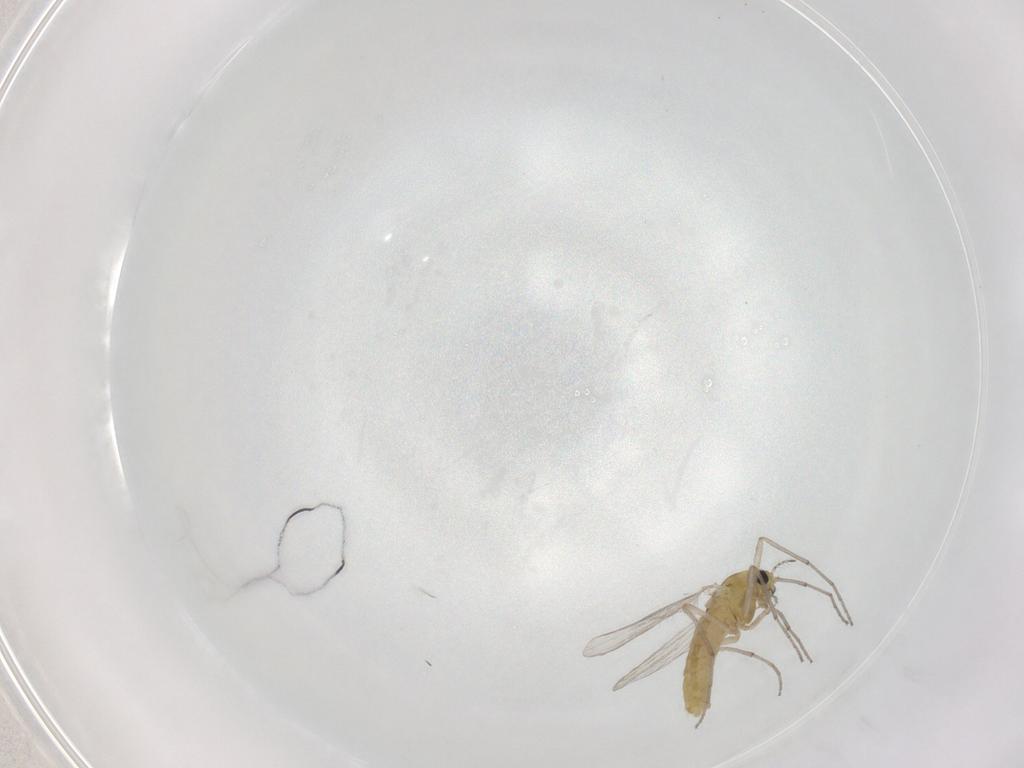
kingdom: Animalia
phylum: Arthropoda
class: Insecta
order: Diptera
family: Chironomidae
